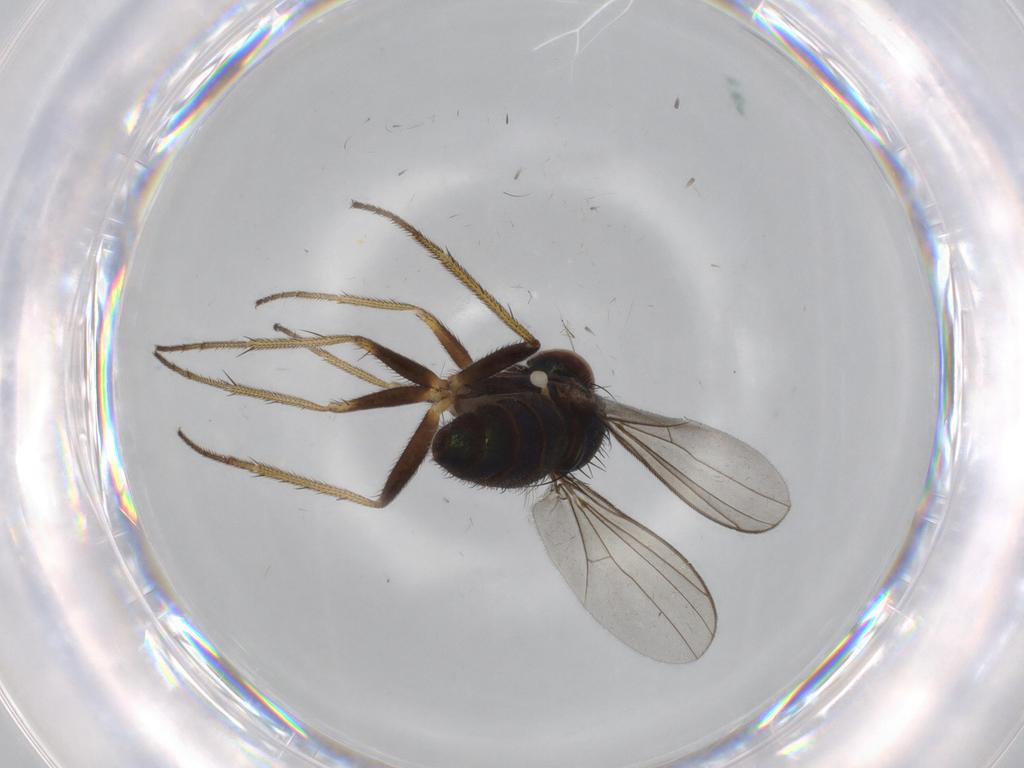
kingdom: Animalia
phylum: Arthropoda
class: Insecta
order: Diptera
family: Dolichopodidae
